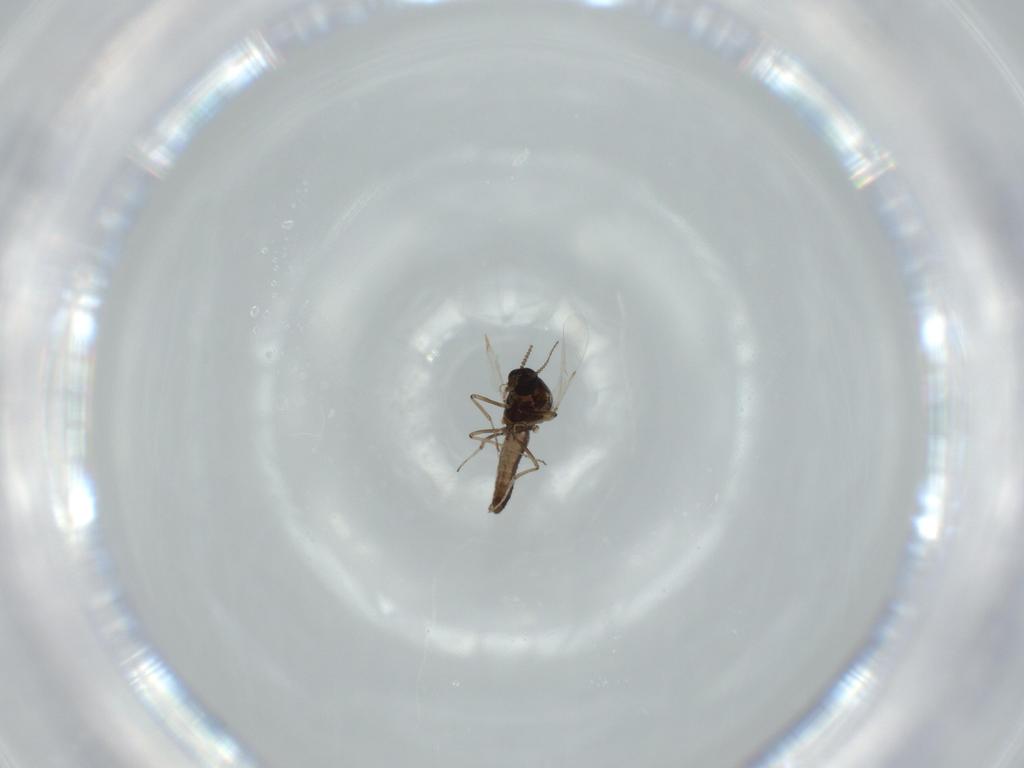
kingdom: Animalia
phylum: Arthropoda
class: Insecta
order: Diptera
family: Ceratopogonidae
